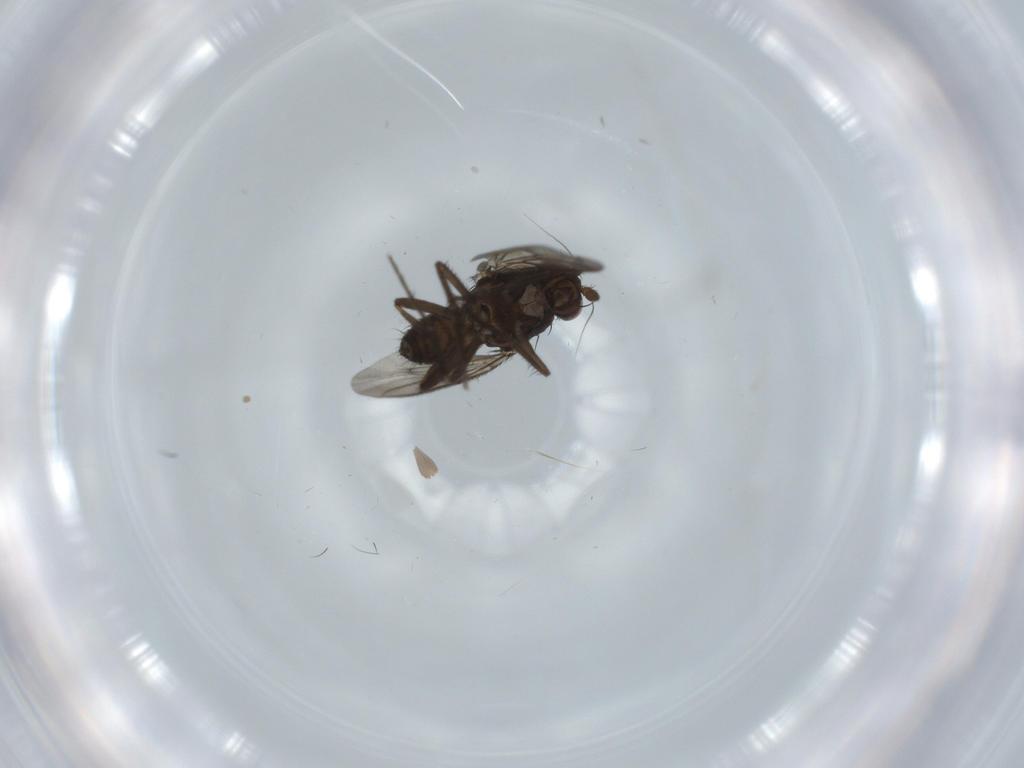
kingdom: Animalia
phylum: Arthropoda
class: Insecta
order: Diptera
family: Sphaeroceridae
